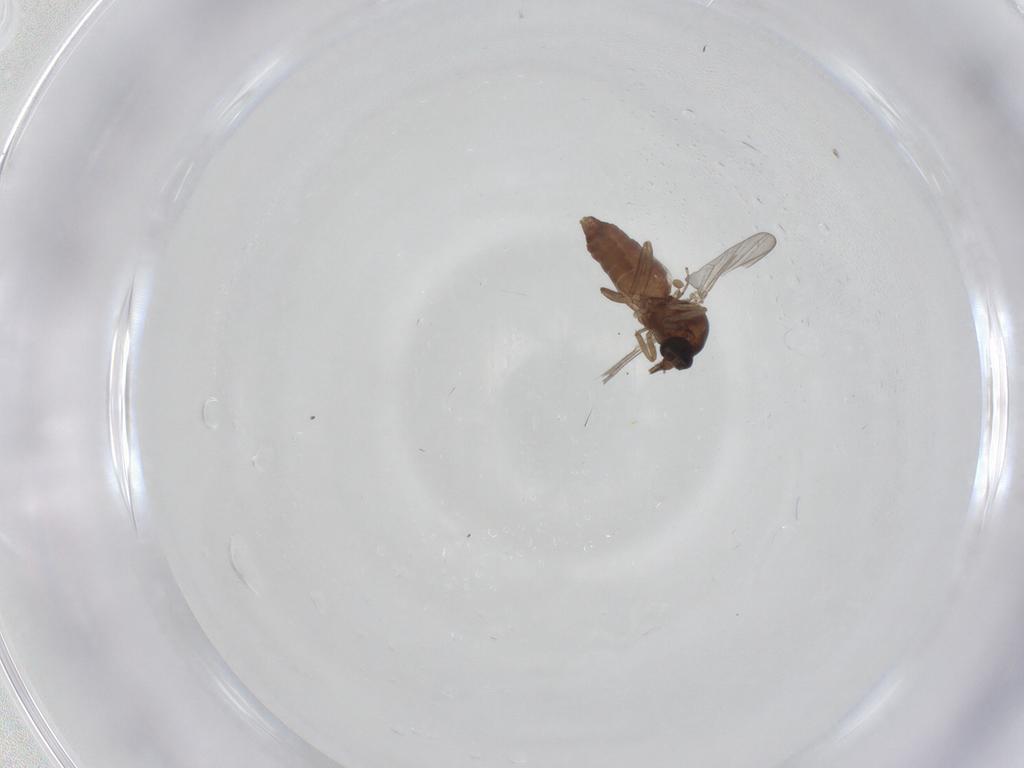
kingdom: Animalia
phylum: Arthropoda
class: Insecta
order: Diptera
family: Ceratopogonidae
